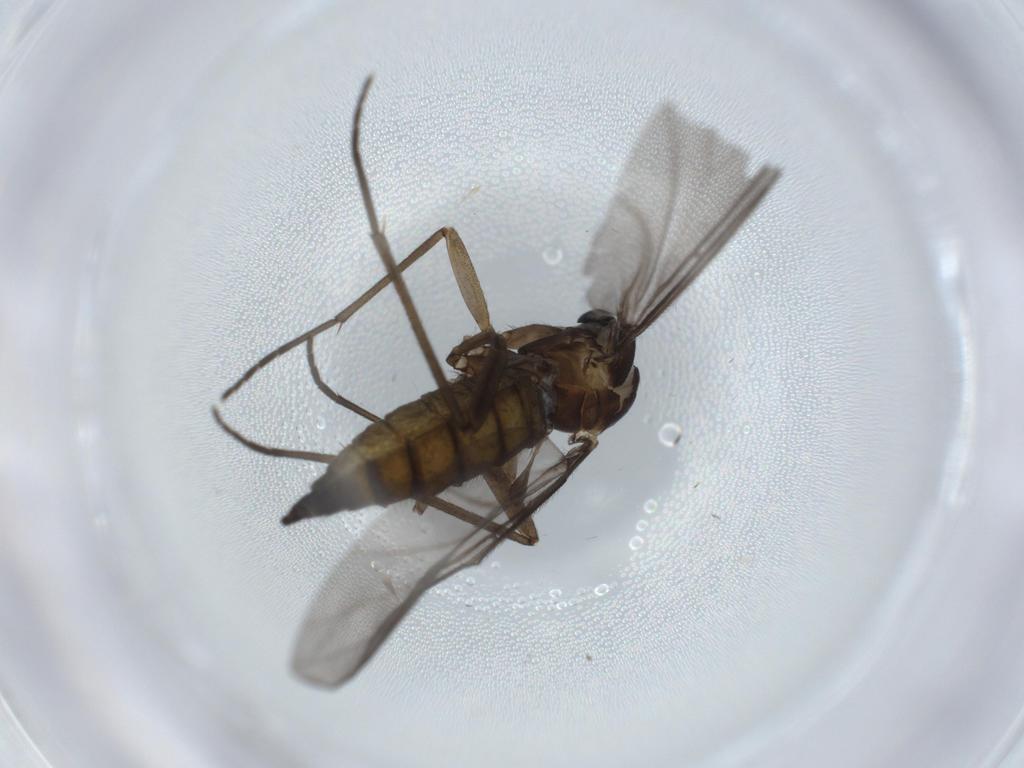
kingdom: Animalia
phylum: Arthropoda
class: Insecta
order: Diptera
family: Sciaridae
